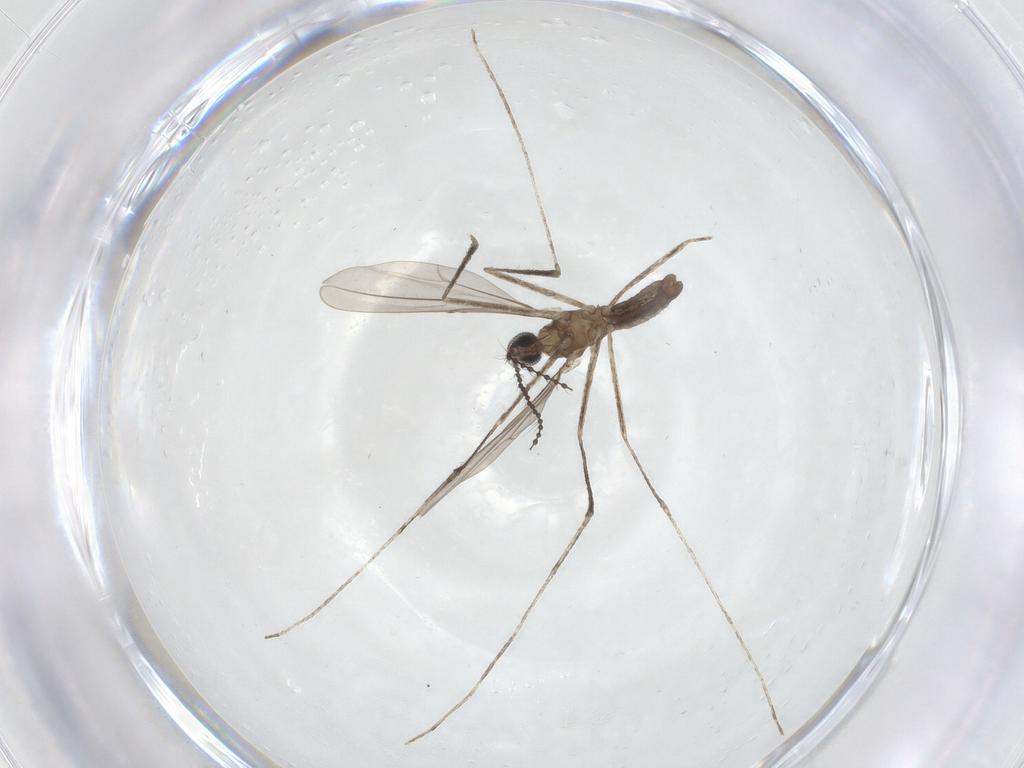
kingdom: Animalia
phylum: Arthropoda
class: Insecta
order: Diptera
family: Cecidomyiidae
